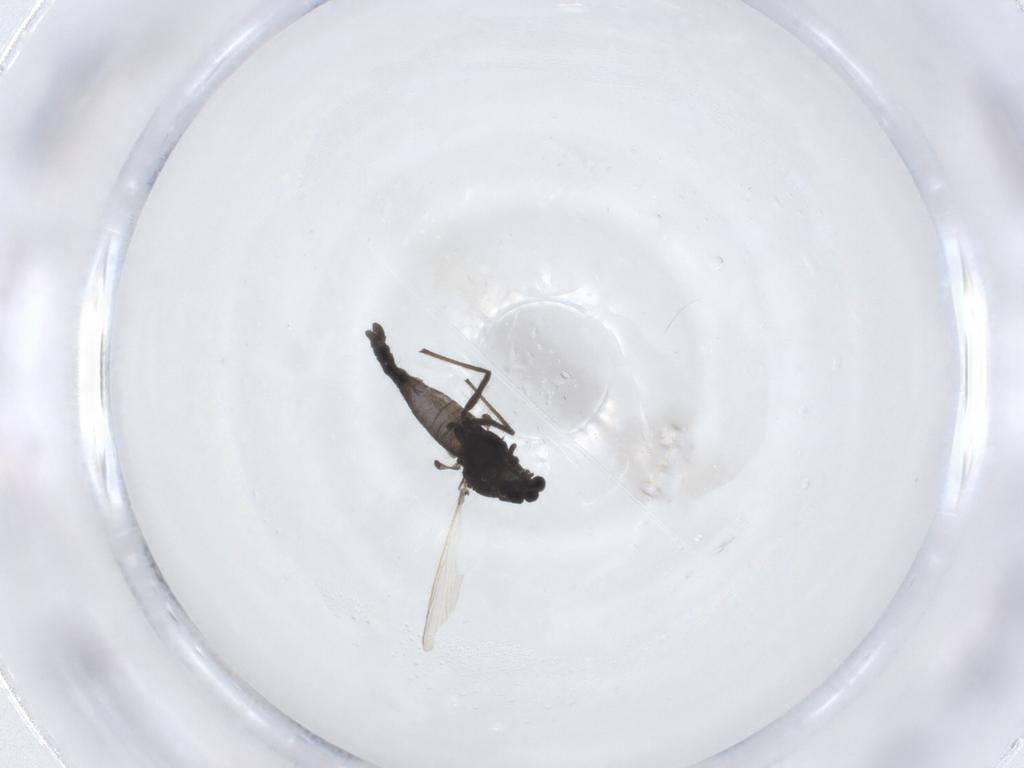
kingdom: Animalia
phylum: Arthropoda
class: Insecta
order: Diptera
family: Chironomidae
